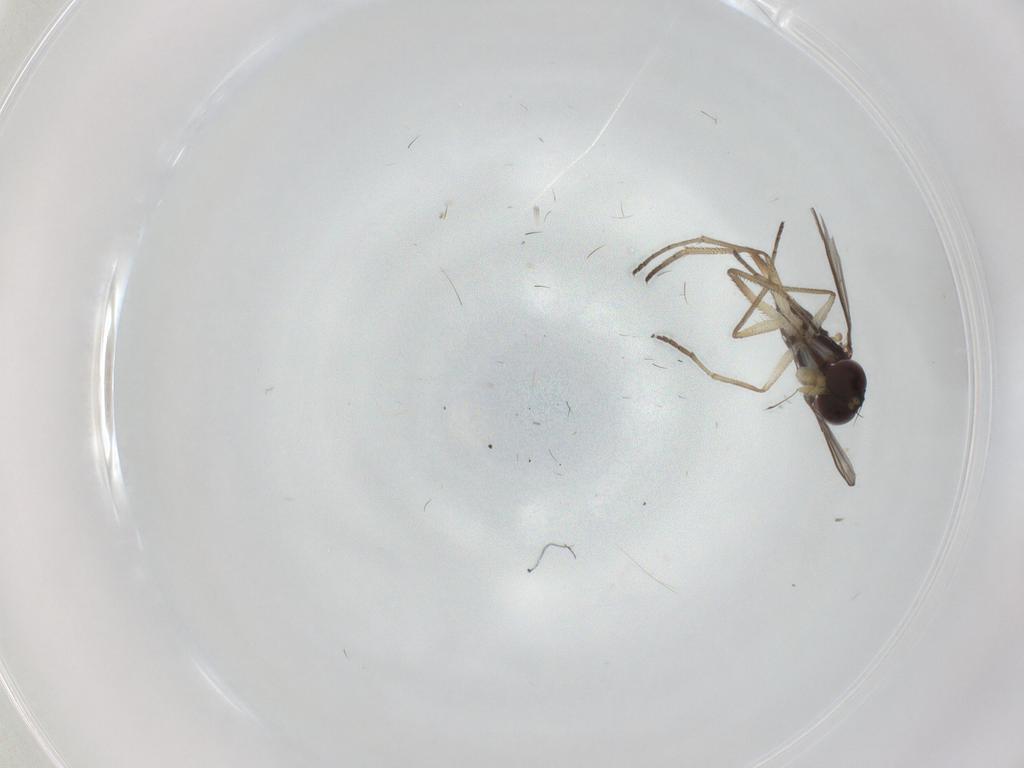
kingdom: Animalia
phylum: Arthropoda
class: Insecta
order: Diptera
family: Dolichopodidae
